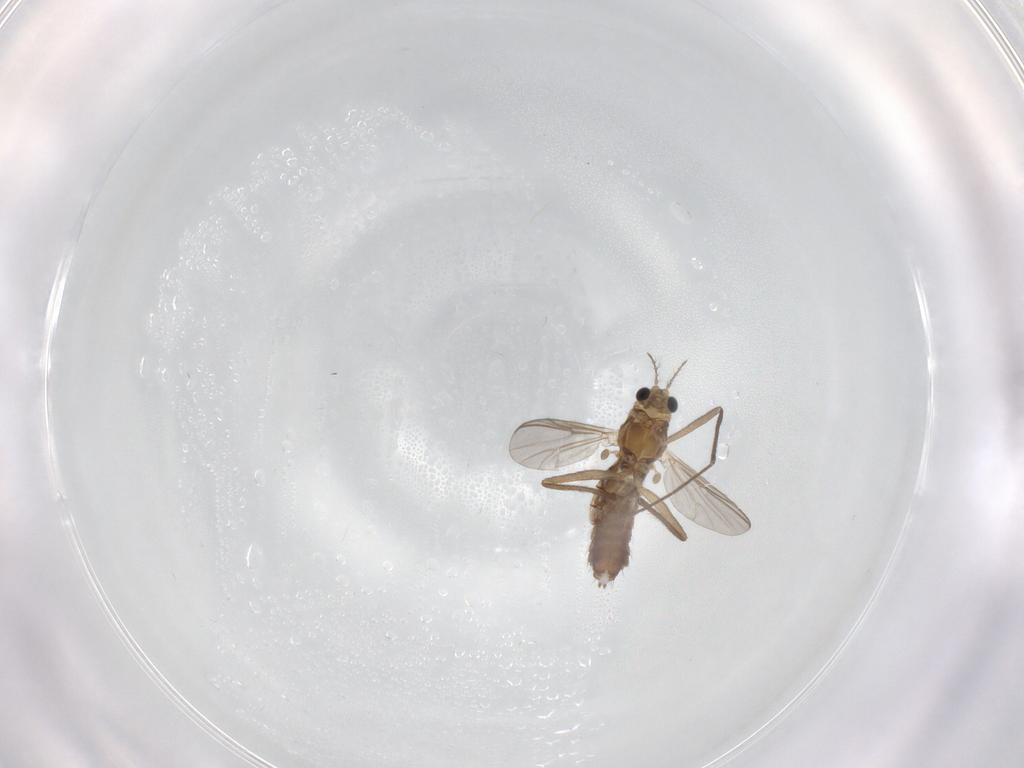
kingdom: Animalia
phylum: Arthropoda
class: Insecta
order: Diptera
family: Chironomidae
